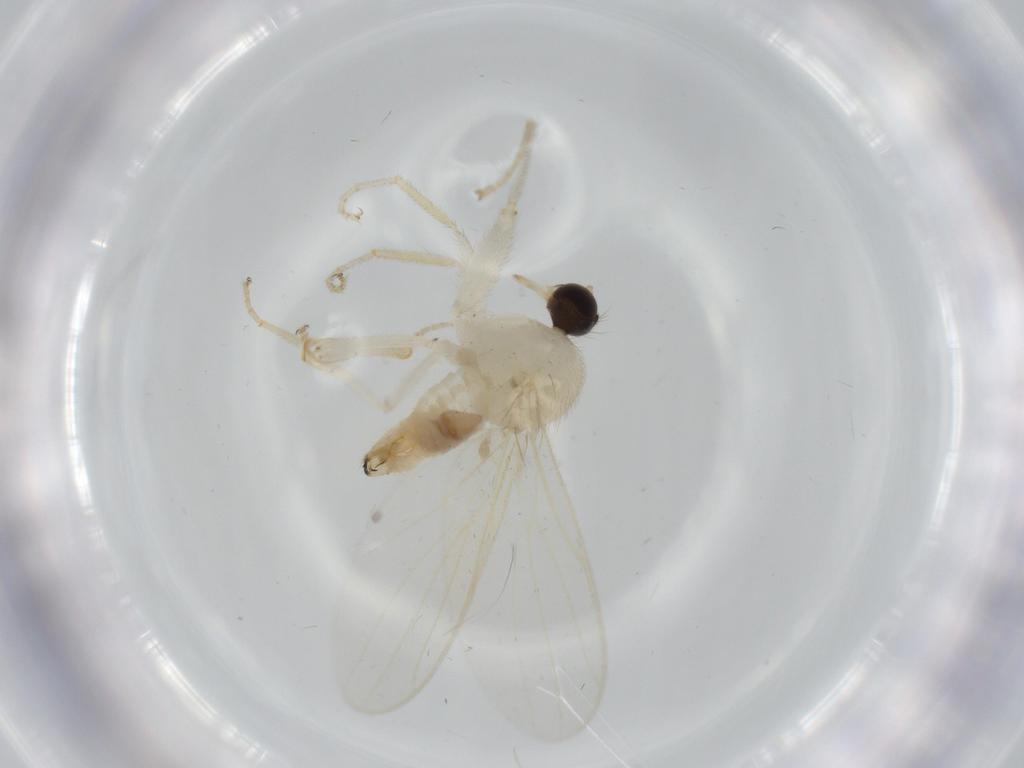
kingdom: Animalia
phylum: Arthropoda
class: Insecta
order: Diptera
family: Hybotidae
